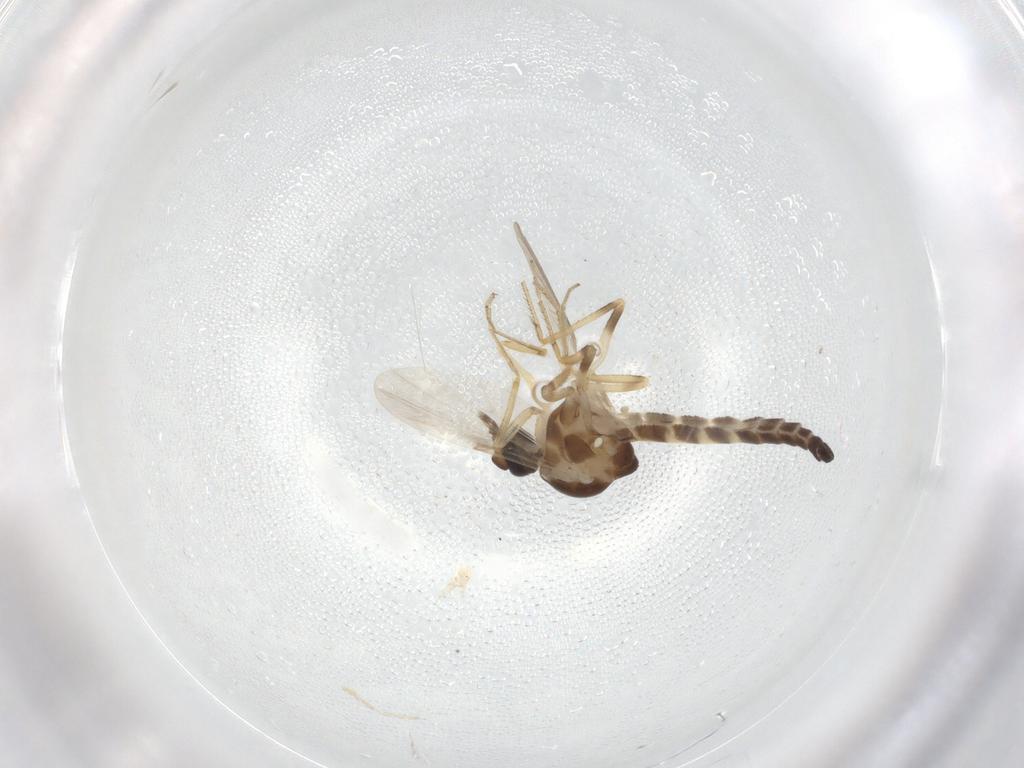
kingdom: Animalia
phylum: Arthropoda
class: Insecta
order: Diptera
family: Ceratopogonidae
